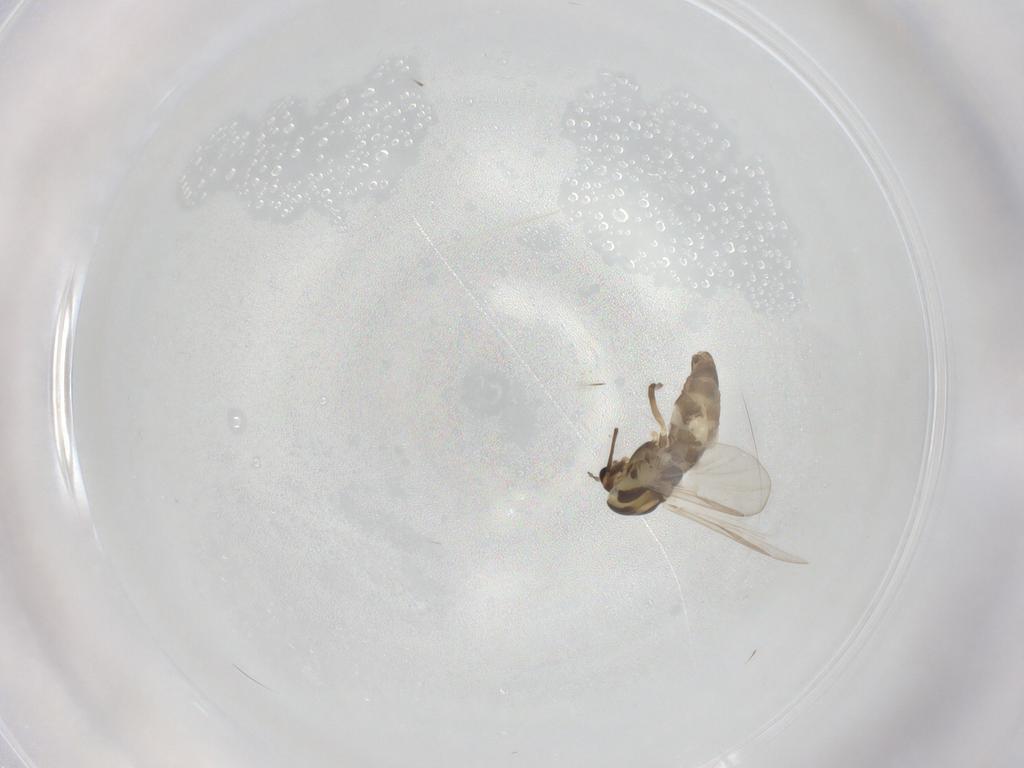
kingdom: Animalia
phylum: Arthropoda
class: Insecta
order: Diptera
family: Chironomidae
